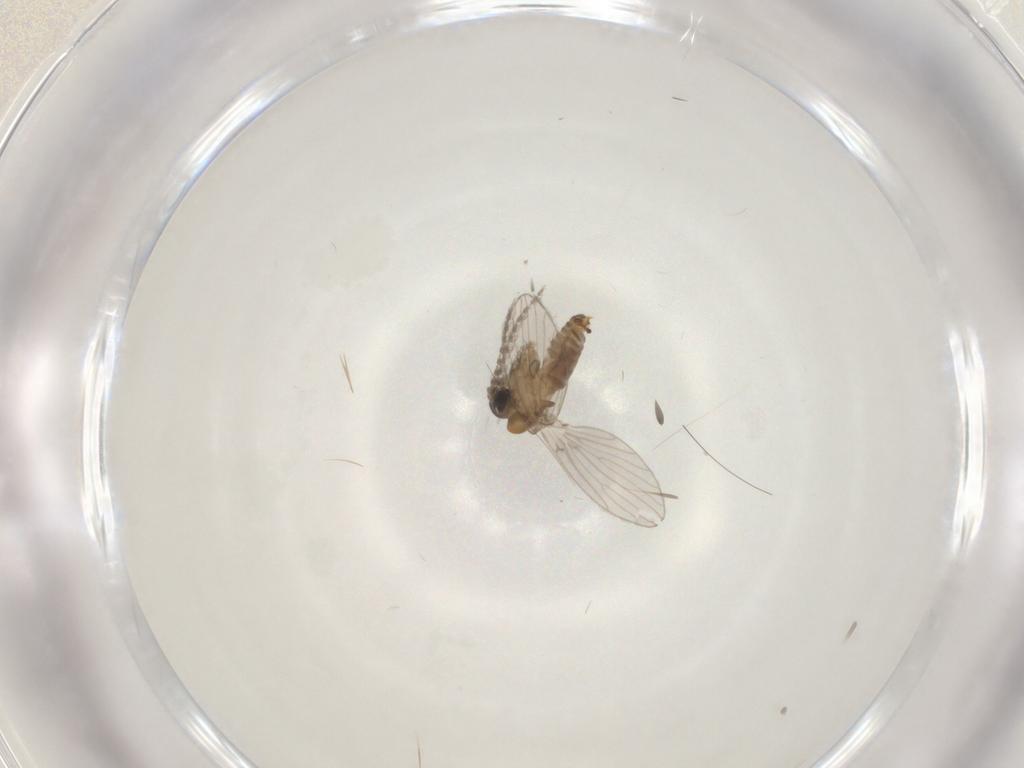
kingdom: Animalia
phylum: Arthropoda
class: Insecta
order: Diptera
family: Psychodidae
